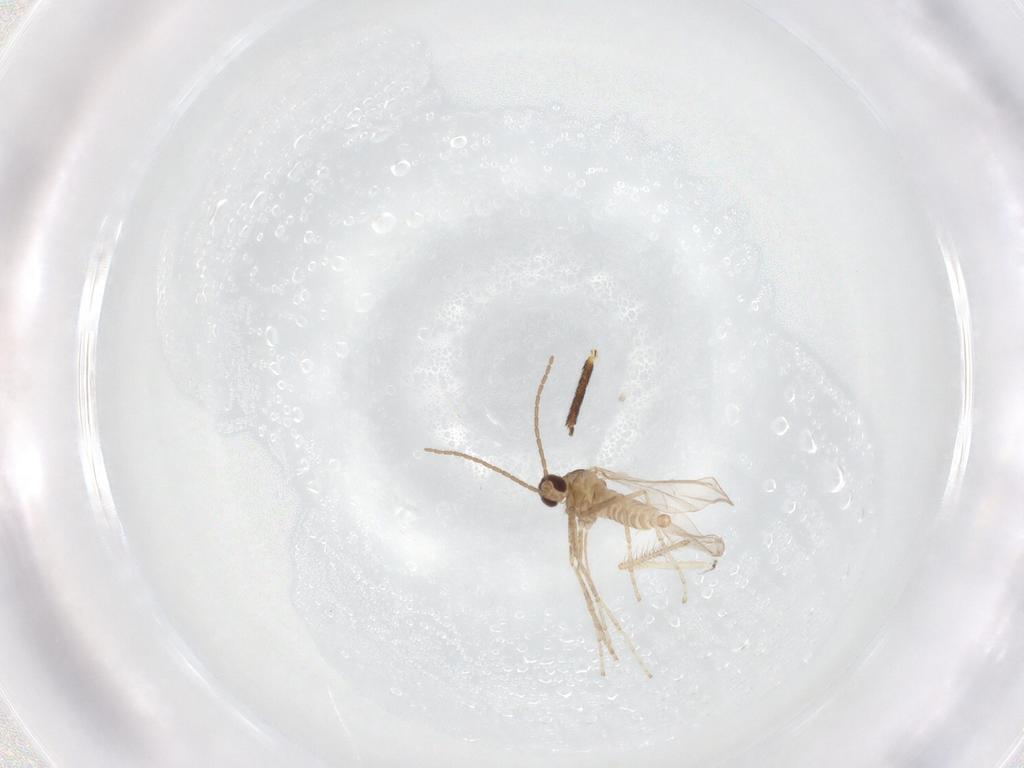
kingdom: Animalia
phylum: Arthropoda
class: Insecta
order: Diptera
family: Cecidomyiidae
